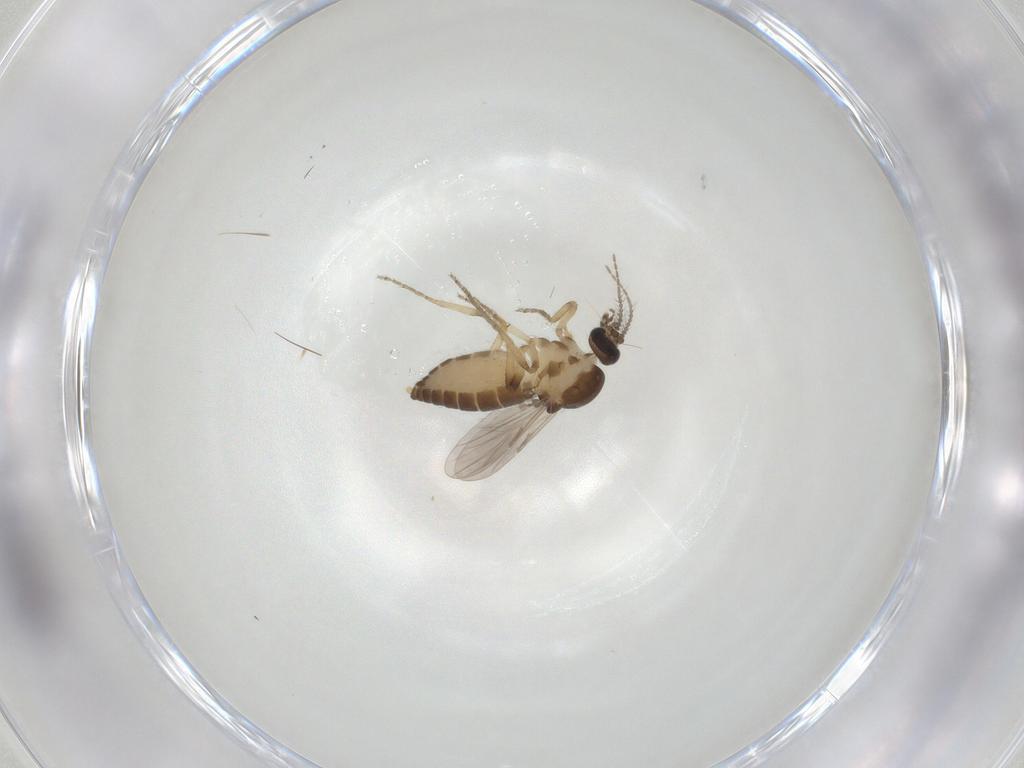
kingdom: Animalia
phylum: Arthropoda
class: Insecta
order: Diptera
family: Ceratopogonidae
